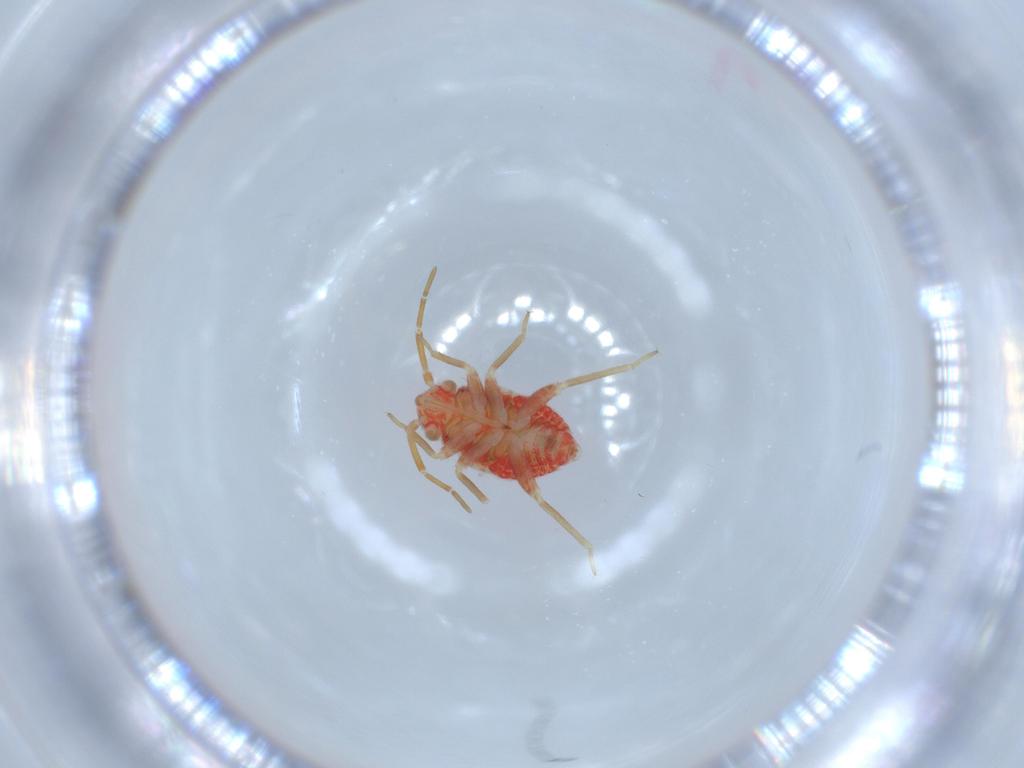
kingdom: Animalia
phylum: Arthropoda
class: Insecta
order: Hemiptera
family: Miridae
